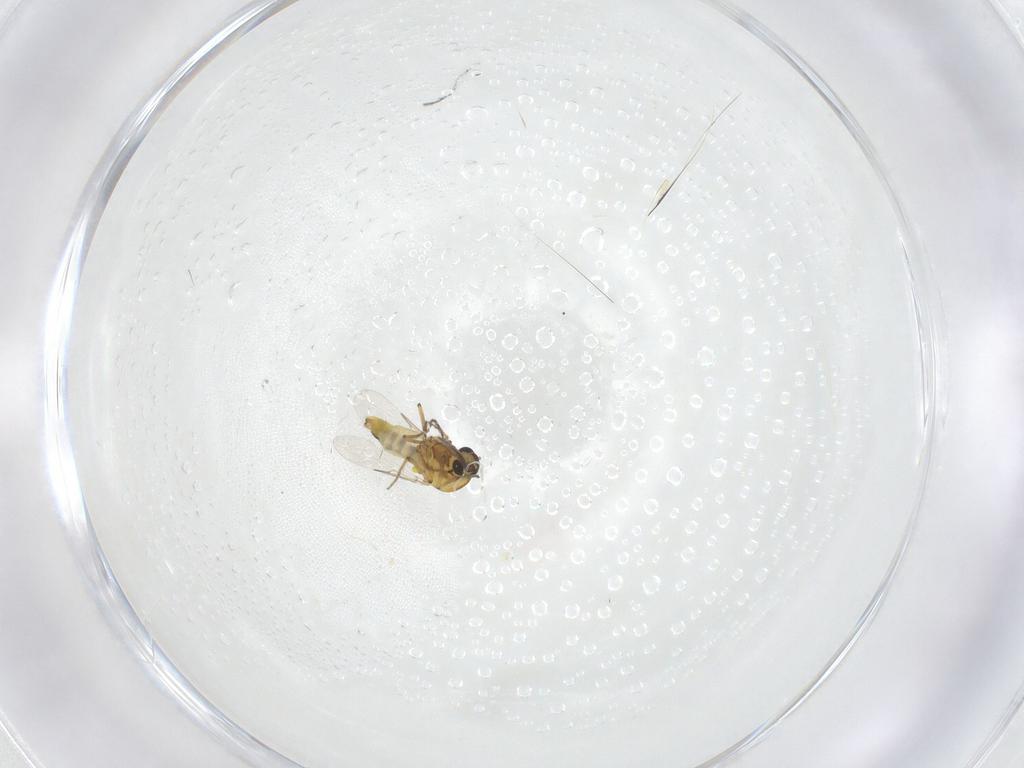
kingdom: Animalia
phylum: Arthropoda
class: Insecta
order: Diptera
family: Ceratopogonidae
